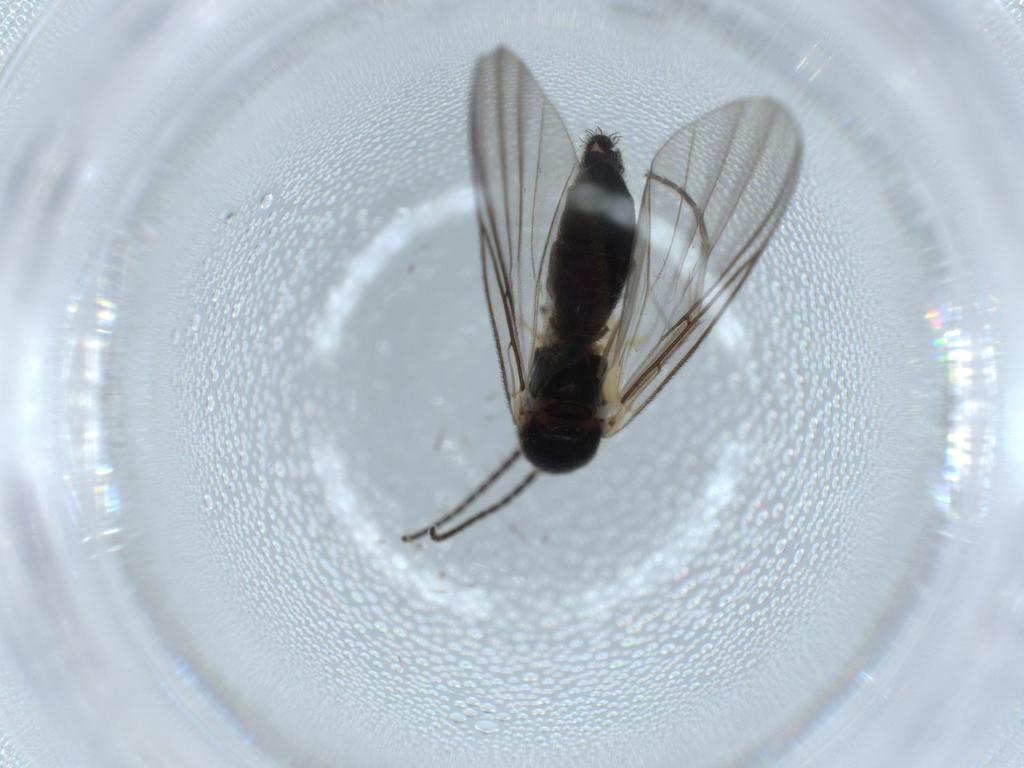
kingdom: Animalia
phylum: Arthropoda
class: Insecta
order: Diptera
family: Mycetophilidae
